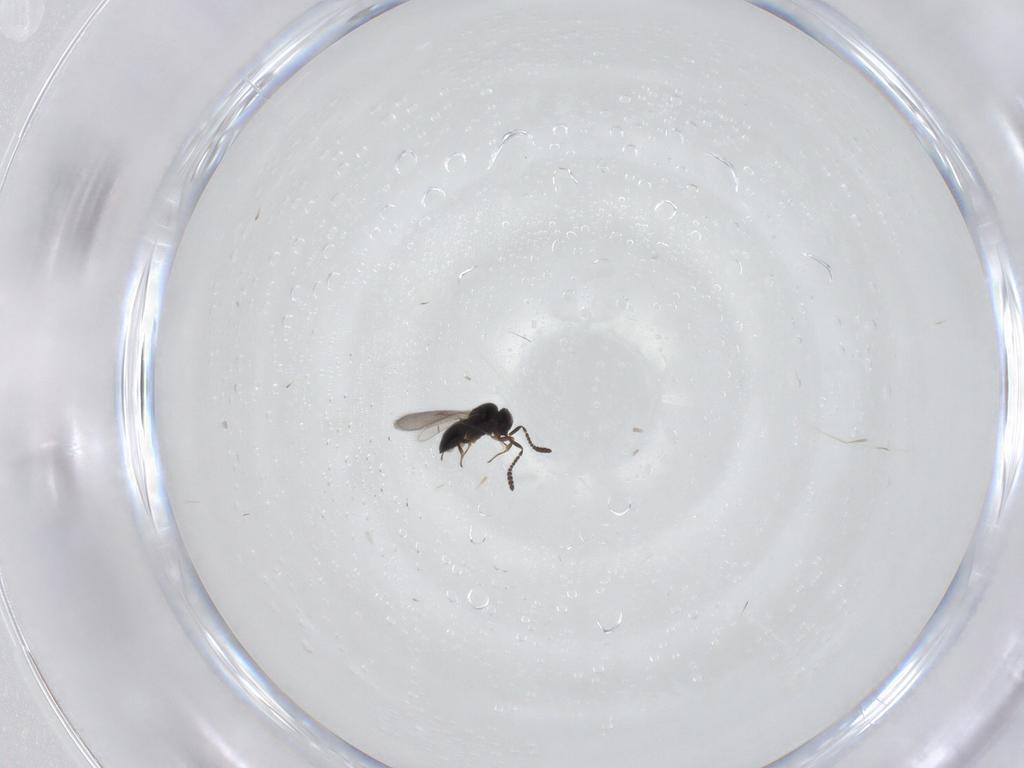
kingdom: Animalia
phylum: Arthropoda
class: Insecta
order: Hymenoptera
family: Scelionidae
